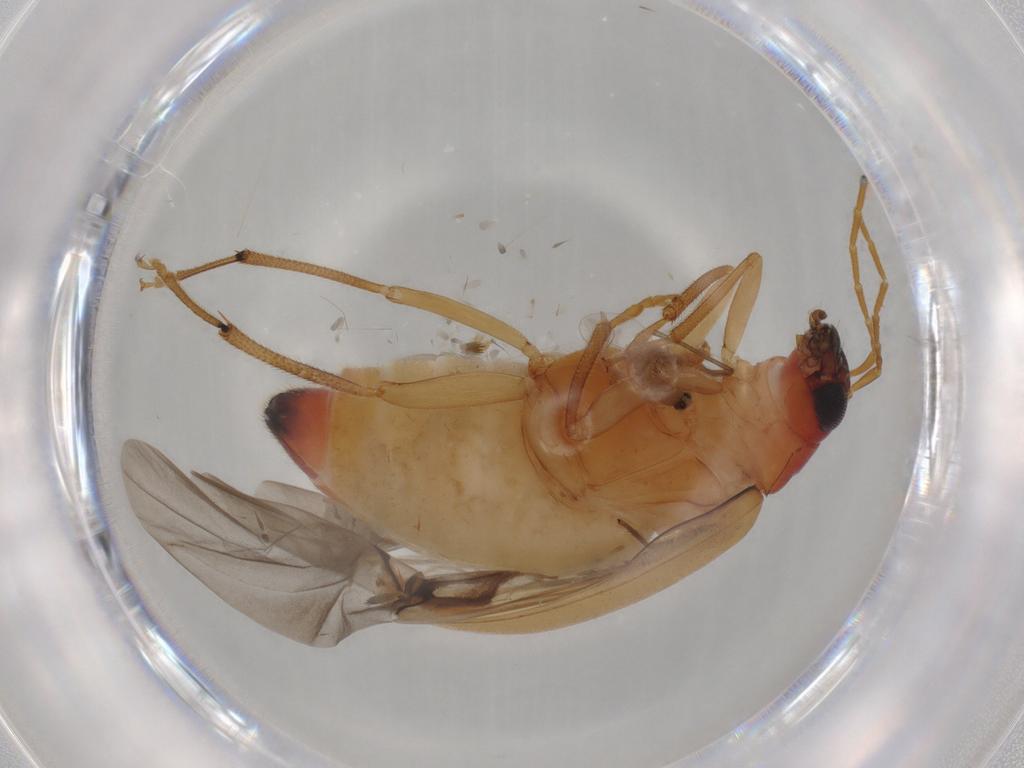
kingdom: Animalia
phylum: Arthropoda
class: Insecta
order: Coleoptera
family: Chrysomelidae
